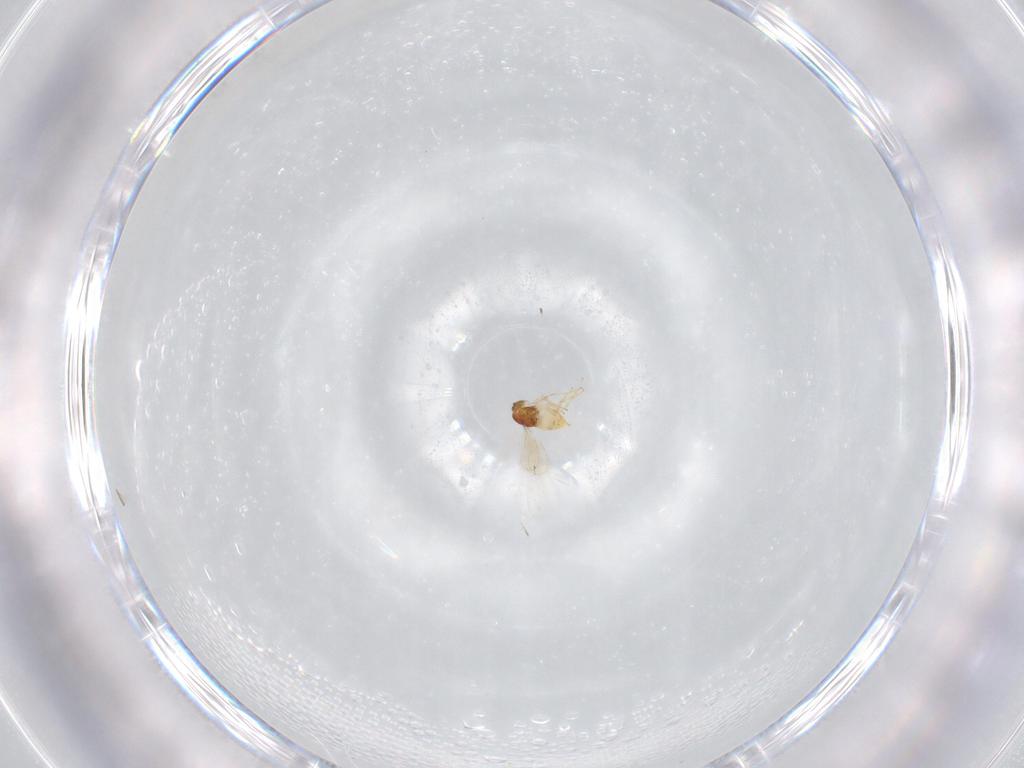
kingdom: Animalia
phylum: Arthropoda
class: Insecta
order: Hymenoptera
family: Aphelinidae
